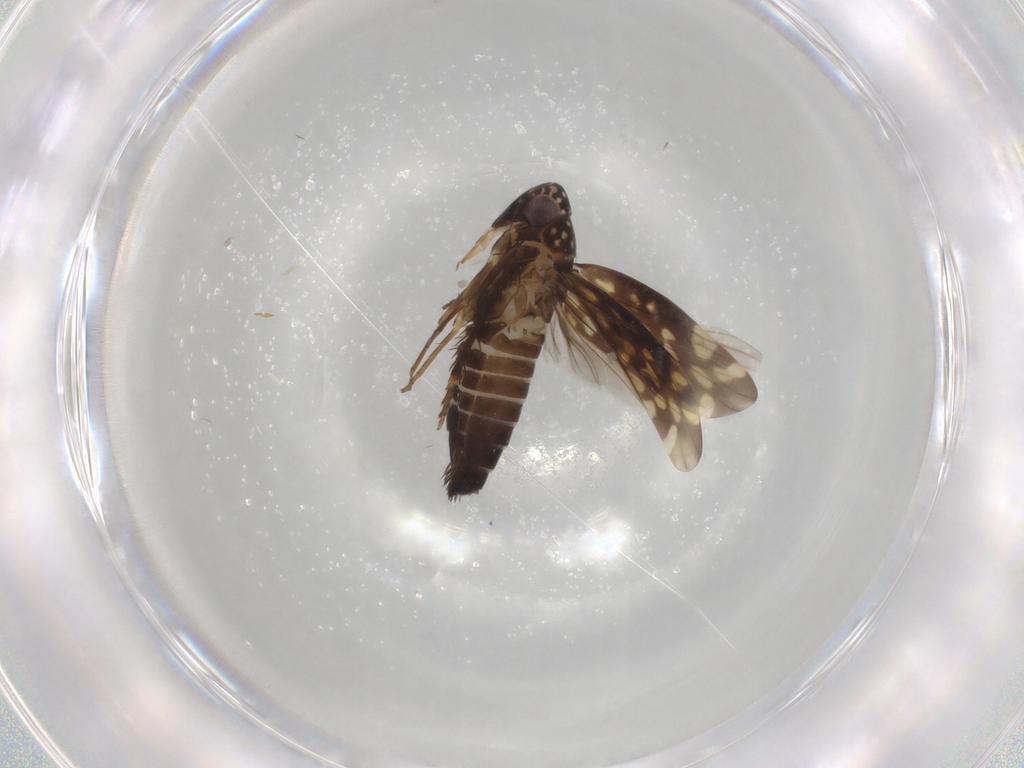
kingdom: Animalia
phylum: Arthropoda
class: Insecta
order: Hemiptera
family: Cicadellidae
